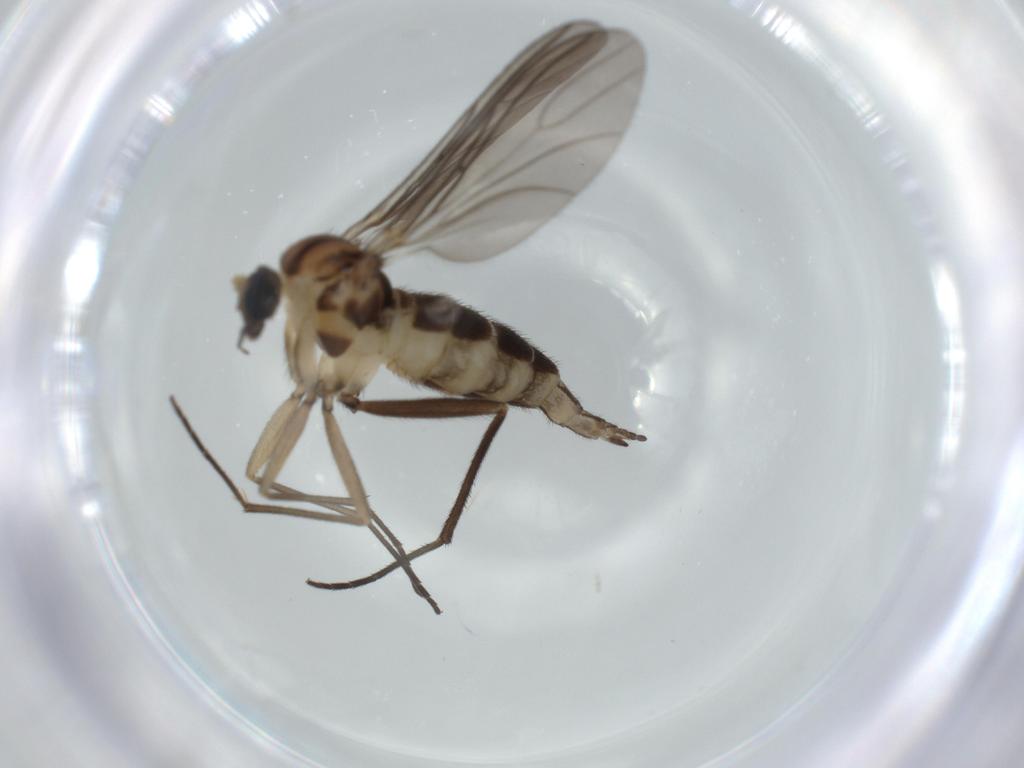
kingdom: Animalia
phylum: Arthropoda
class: Insecta
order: Diptera
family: Sciaridae
